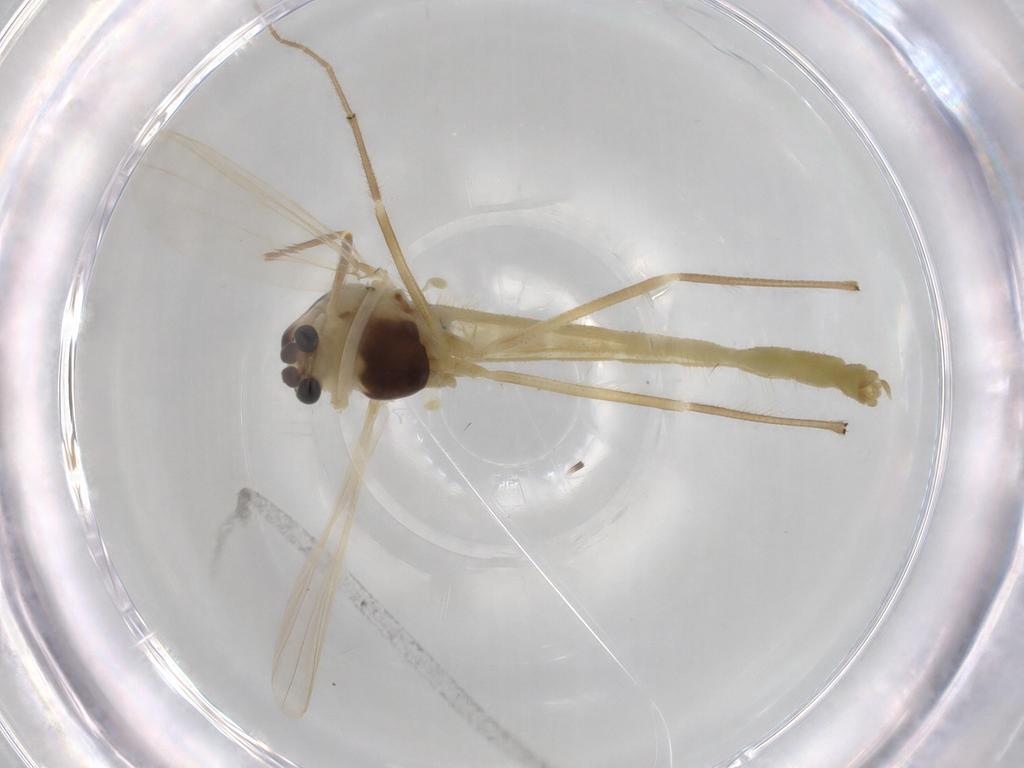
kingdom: Animalia
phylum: Arthropoda
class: Insecta
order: Diptera
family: Chironomidae
